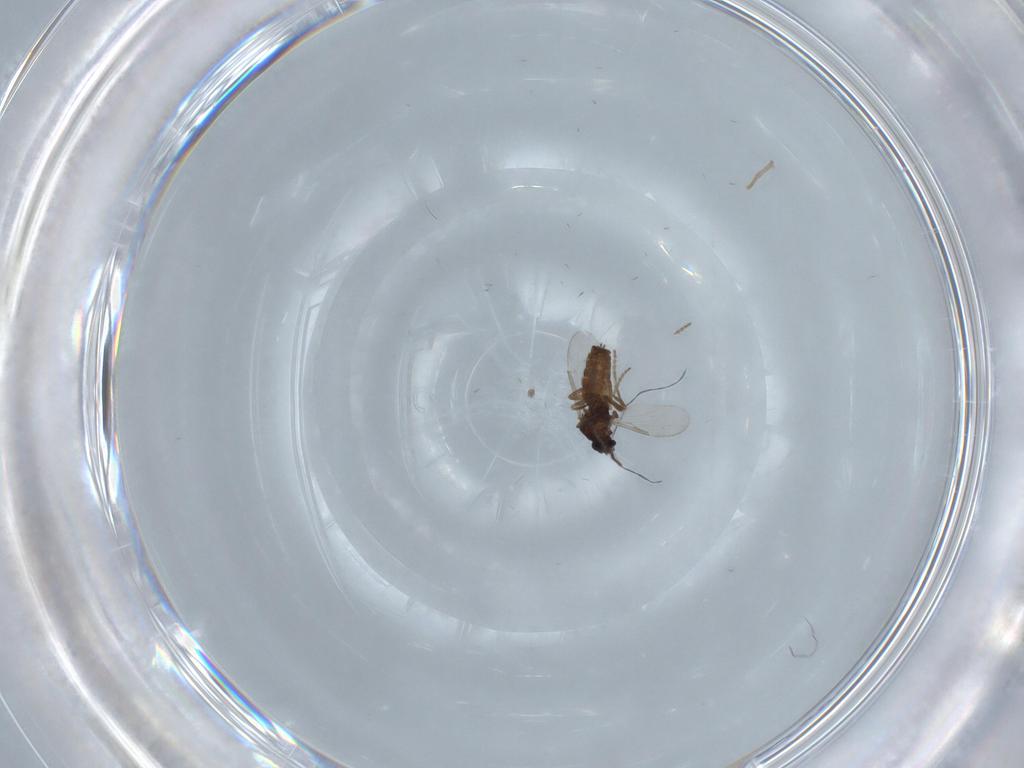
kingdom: Animalia
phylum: Arthropoda
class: Insecta
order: Diptera
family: Ceratopogonidae
